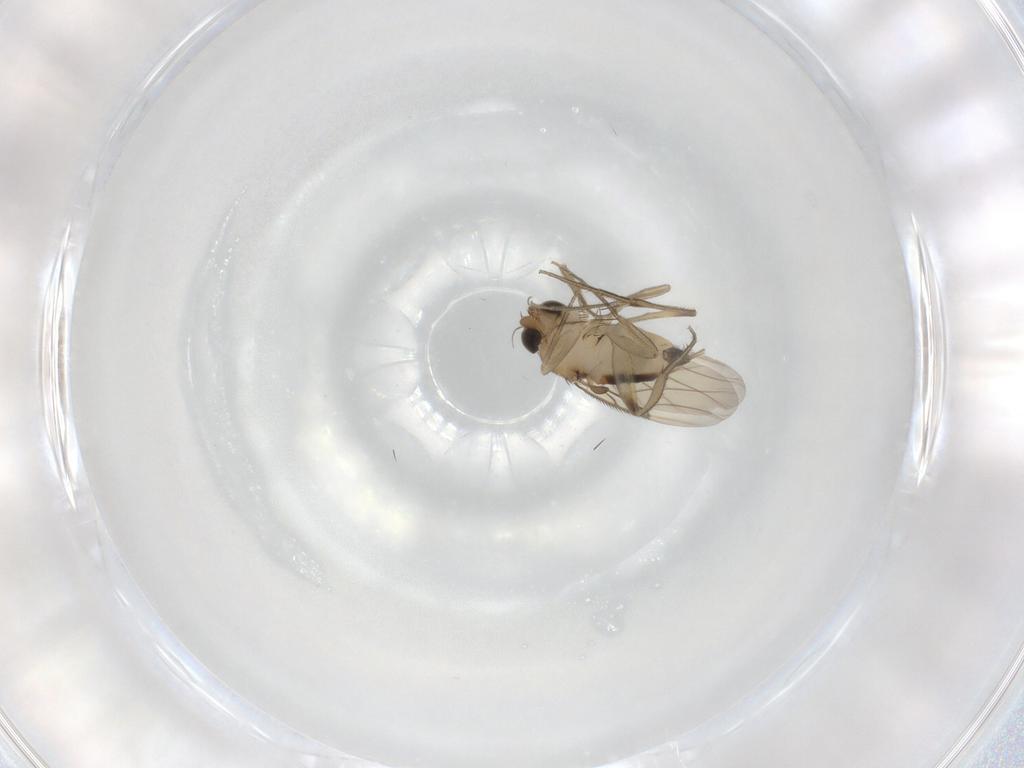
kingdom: Animalia
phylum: Arthropoda
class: Insecta
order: Diptera
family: Phoridae
